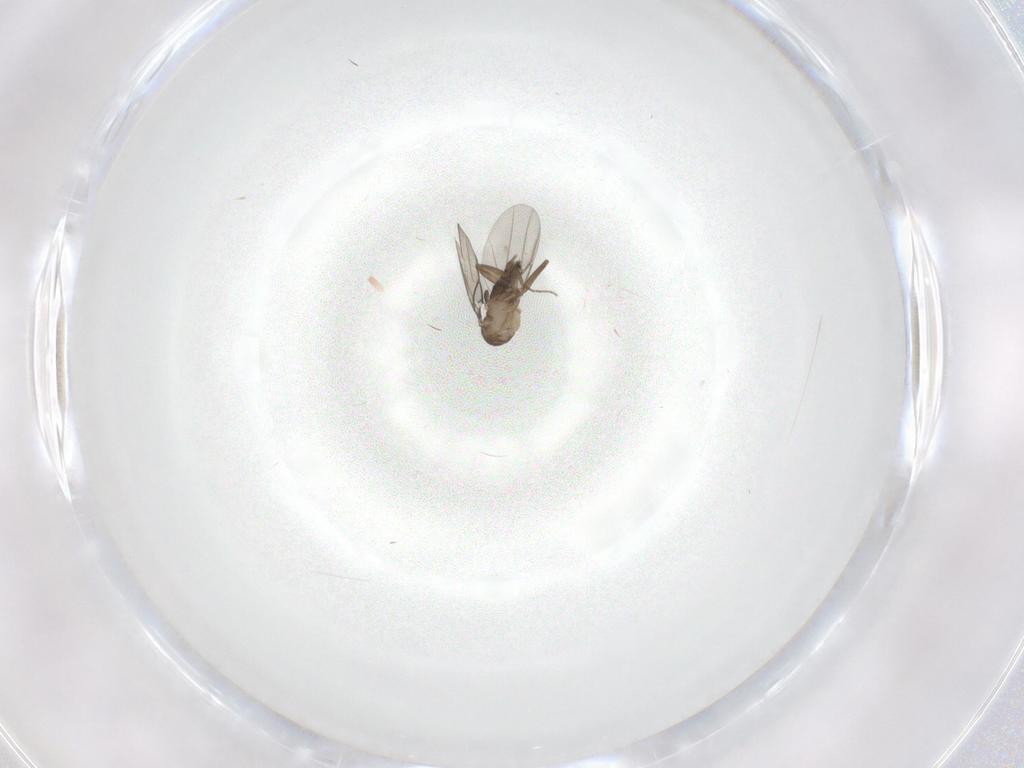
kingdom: Animalia
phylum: Arthropoda
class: Insecta
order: Diptera
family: Phoridae
